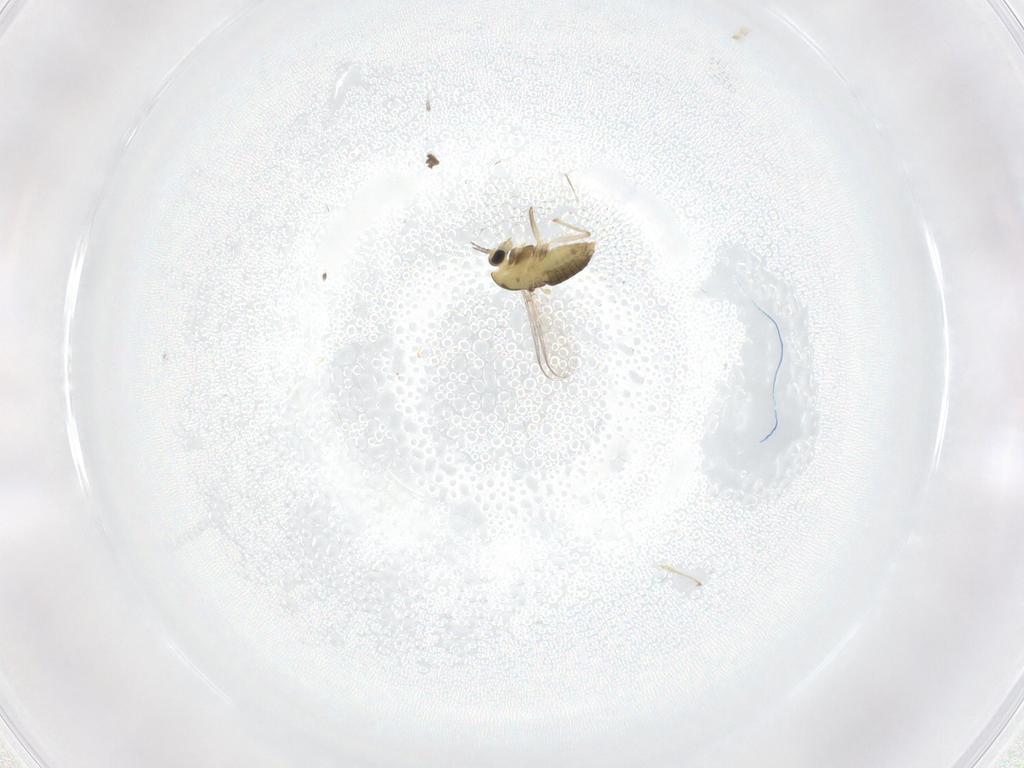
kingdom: Animalia
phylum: Arthropoda
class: Insecta
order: Diptera
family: Chironomidae
